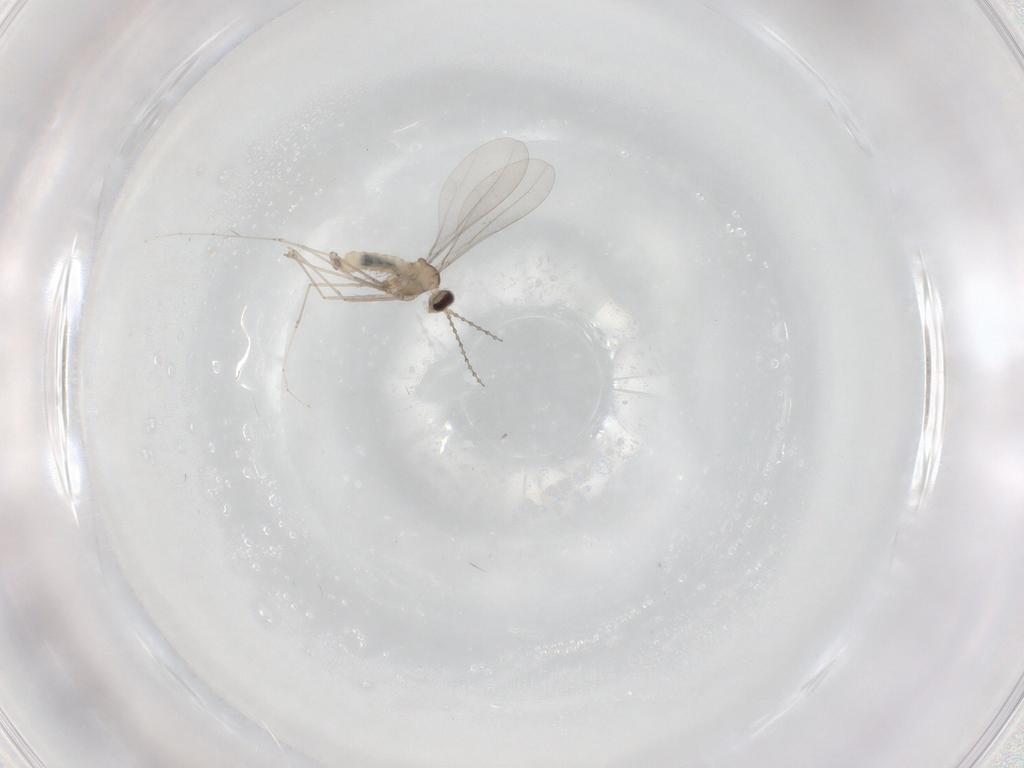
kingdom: Animalia
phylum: Arthropoda
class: Insecta
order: Diptera
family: Cecidomyiidae
